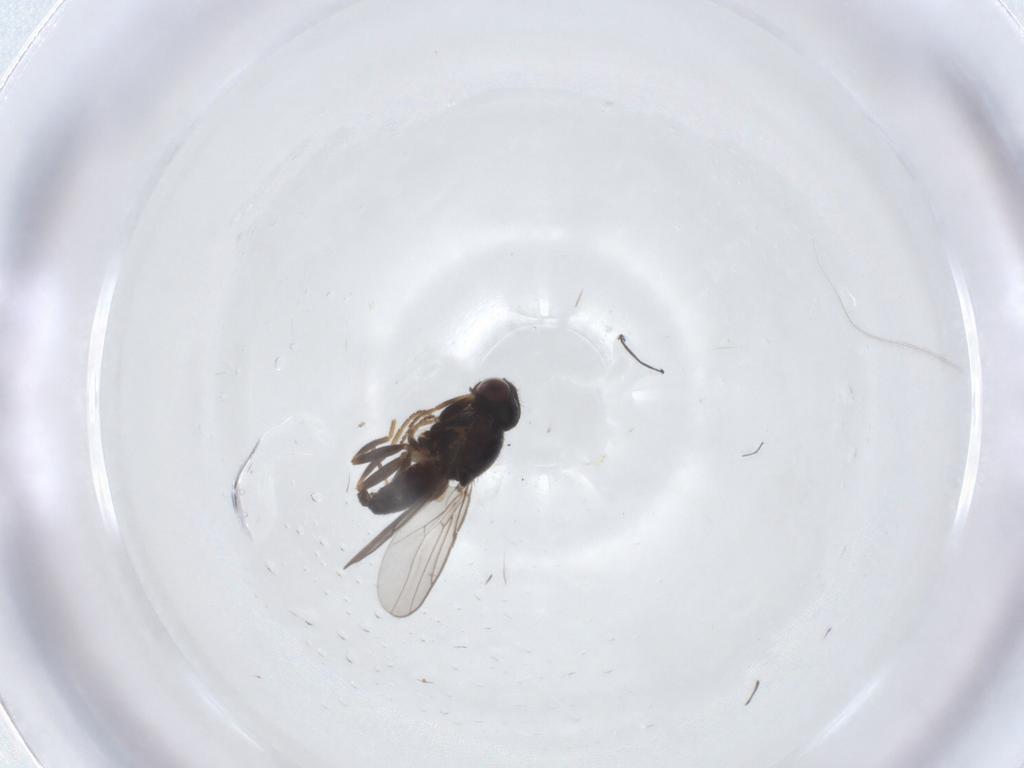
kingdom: Animalia
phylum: Arthropoda
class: Insecta
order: Diptera
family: Chloropidae
